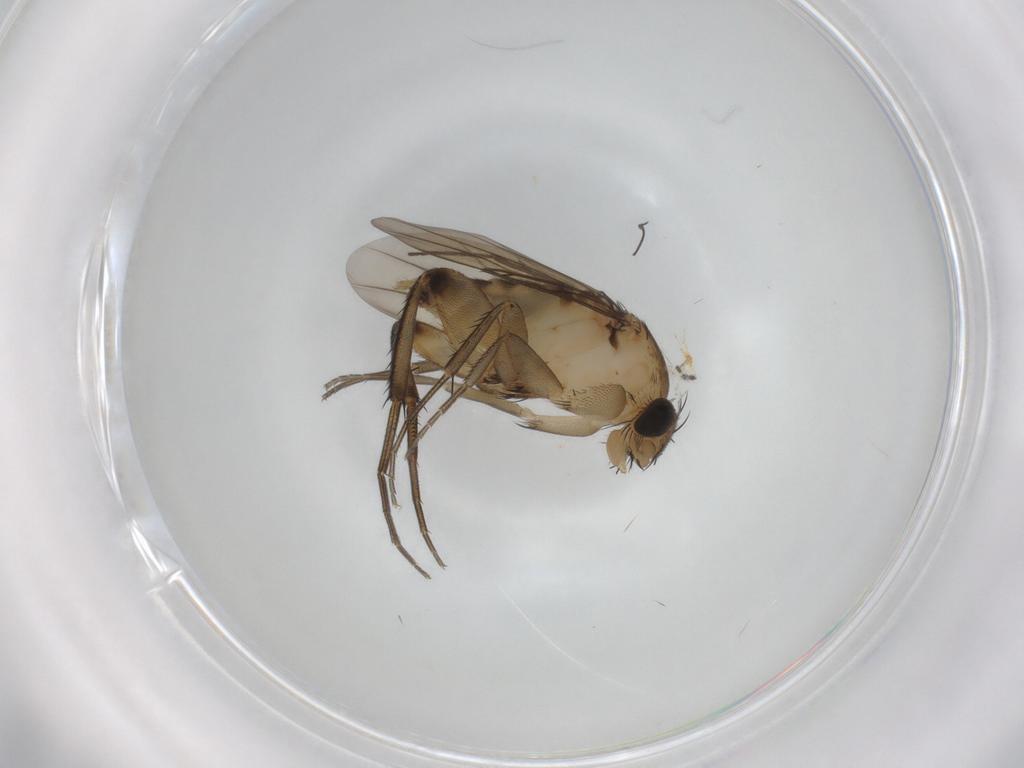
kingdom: Animalia
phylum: Arthropoda
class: Insecta
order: Diptera
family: Phoridae
